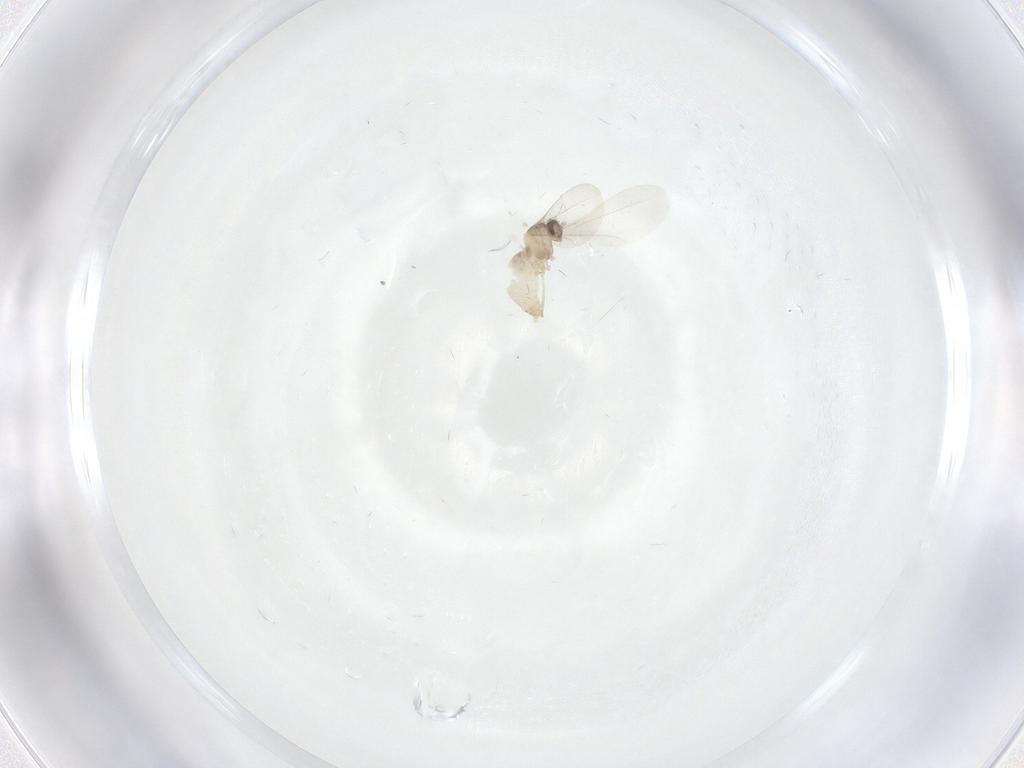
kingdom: Animalia
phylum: Arthropoda
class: Insecta
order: Diptera
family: Cecidomyiidae
